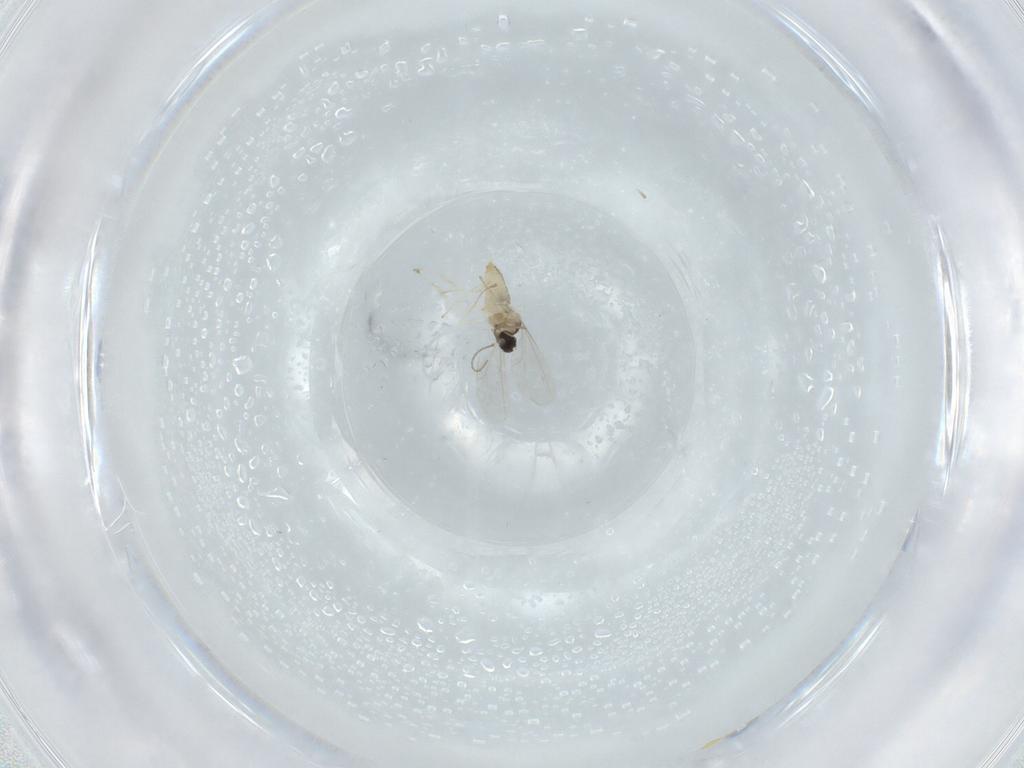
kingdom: Animalia
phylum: Arthropoda
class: Insecta
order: Diptera
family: Cecidomyiidae
